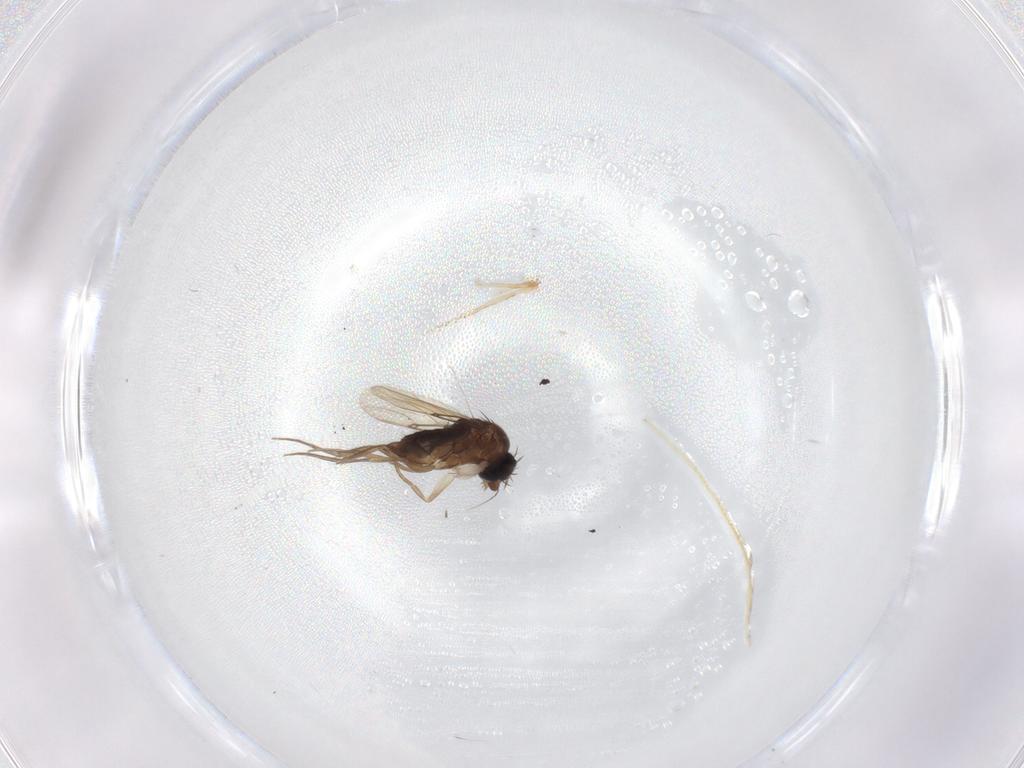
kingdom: Animalia
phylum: Arthropoda
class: Insecta
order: Diptera
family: Phoridae
